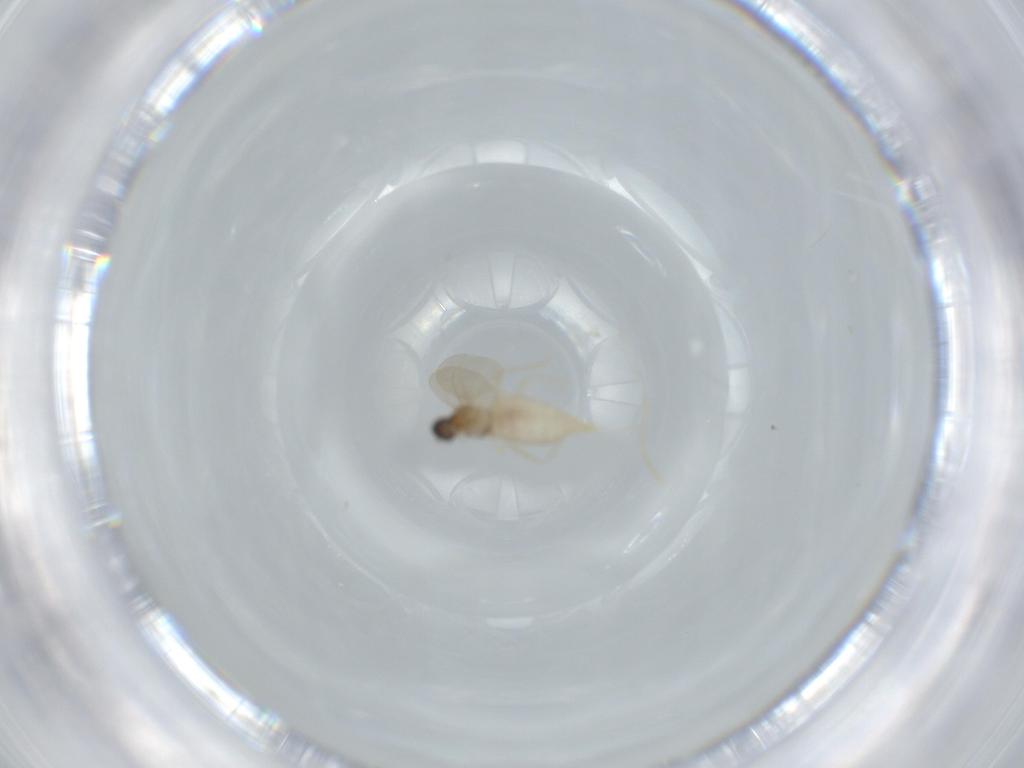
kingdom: Animalia
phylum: Arthropoda
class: Insecta
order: Diptera
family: Cecidomyiidae
